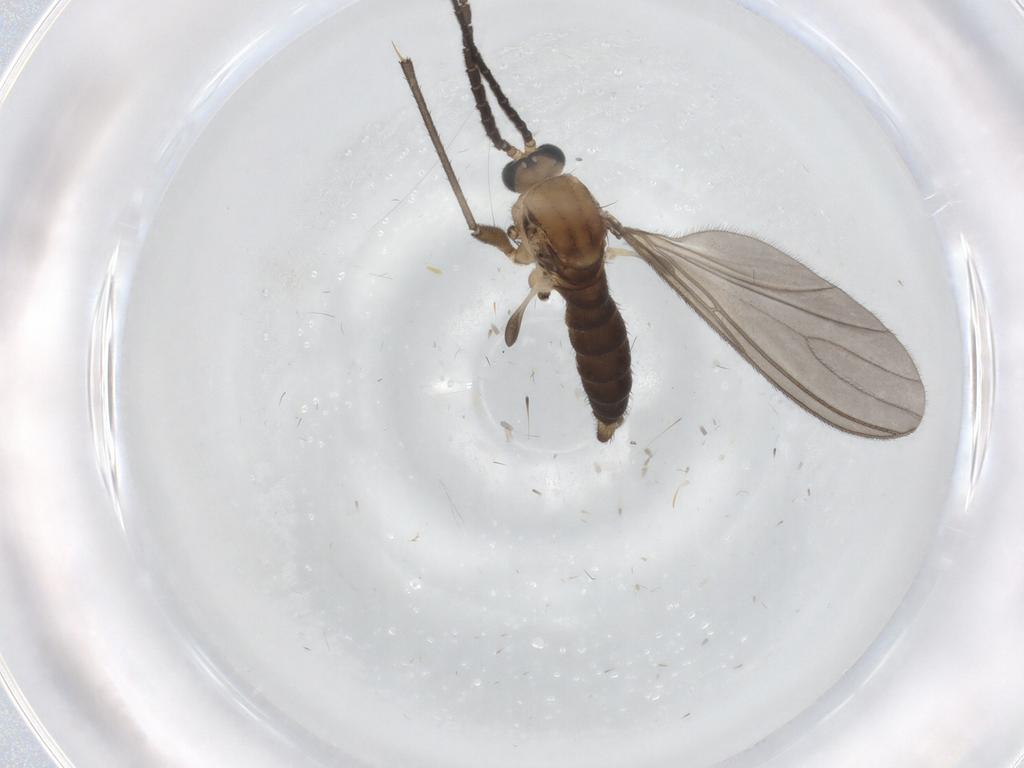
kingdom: Animalia
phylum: Arthropoda
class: Insecta
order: Diptera
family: Sciaridae
